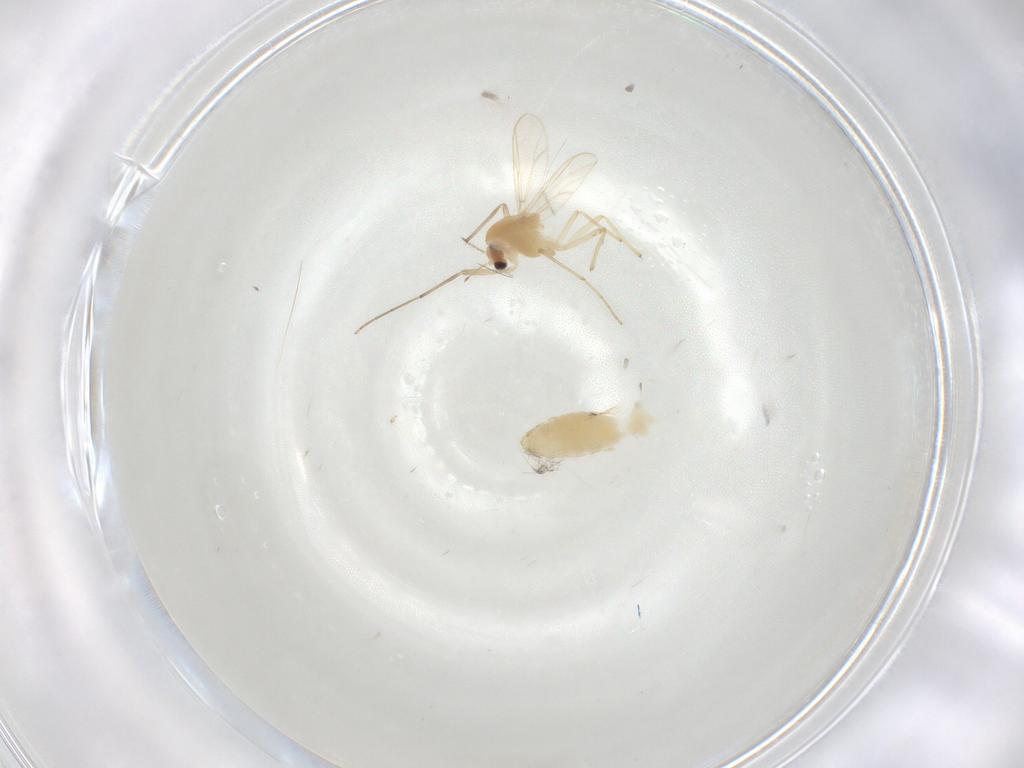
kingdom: Animalia
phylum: Arthropoda
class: Insecta
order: Diptera
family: Chironomidae
